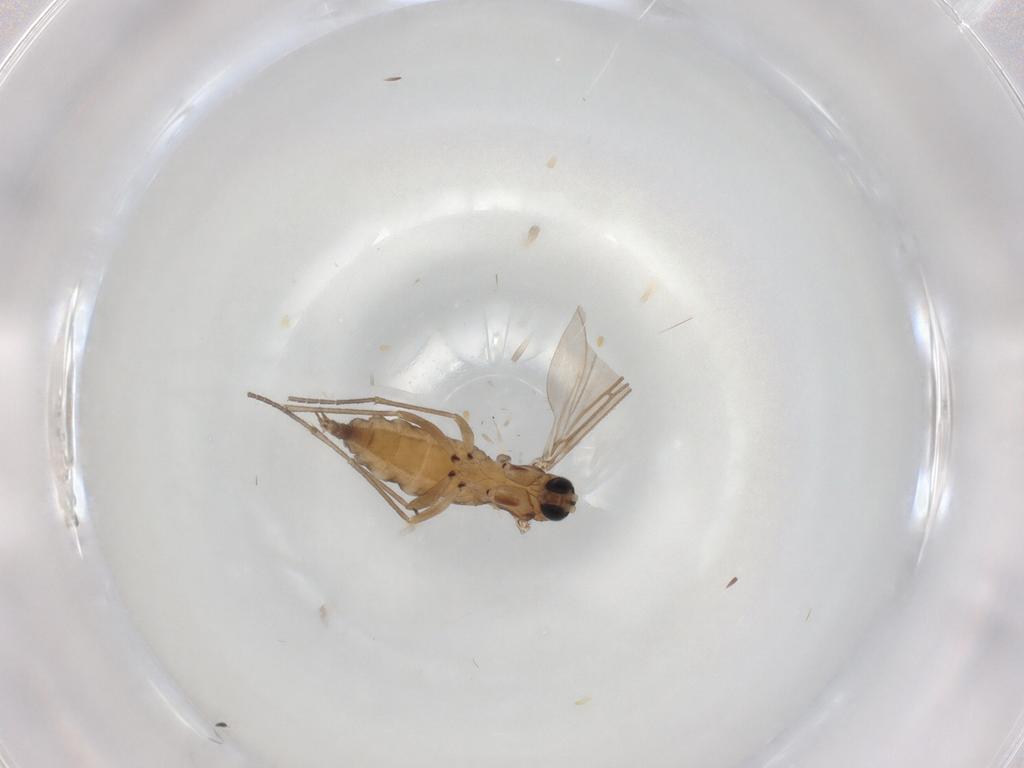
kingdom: Animalia
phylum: Arthropoda
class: Insecta
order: Diptera
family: Sciaridae
